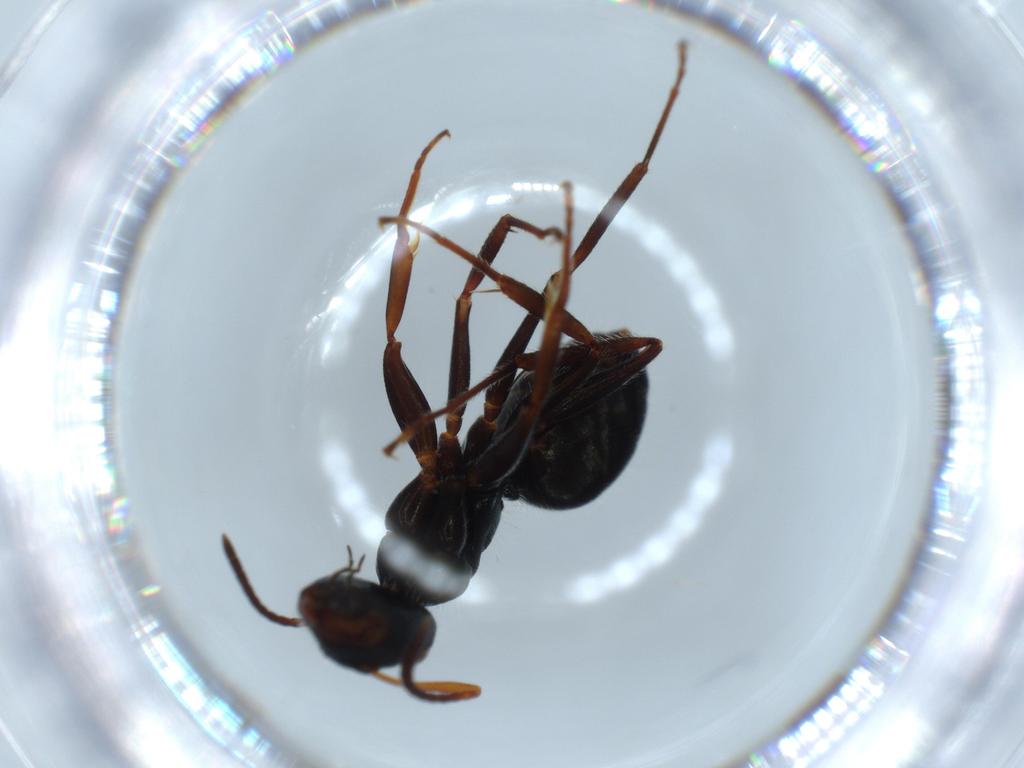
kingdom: Animalia
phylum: Arthropoda
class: Insecta
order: Hymenoptera
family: Formicidae
